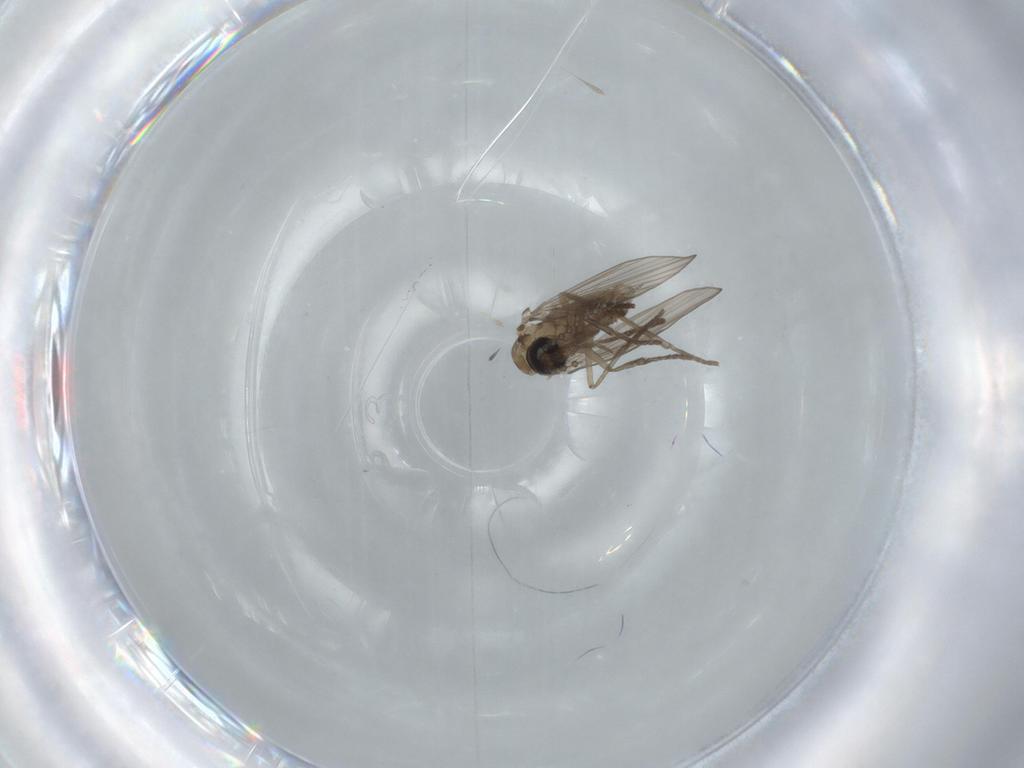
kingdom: Animalia
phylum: Arthropoda
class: Insecta
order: Diptera
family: Psychodidae
